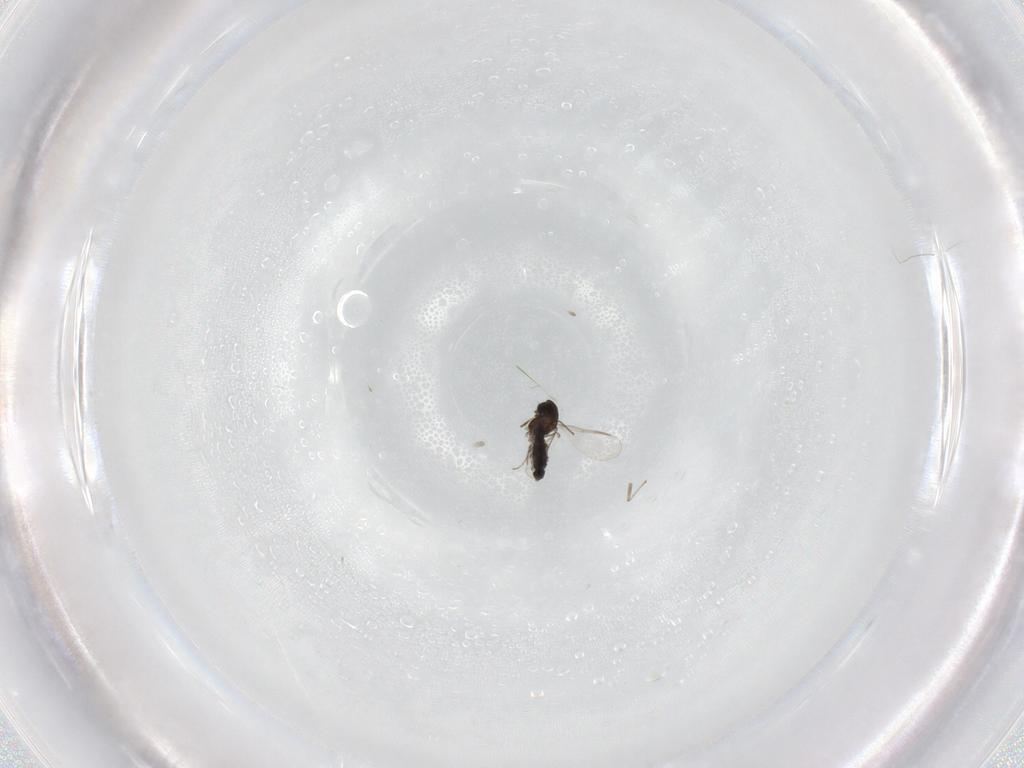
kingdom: Animalia
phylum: Arthropoda
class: Insecta
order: Diptera
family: Chironomidae
